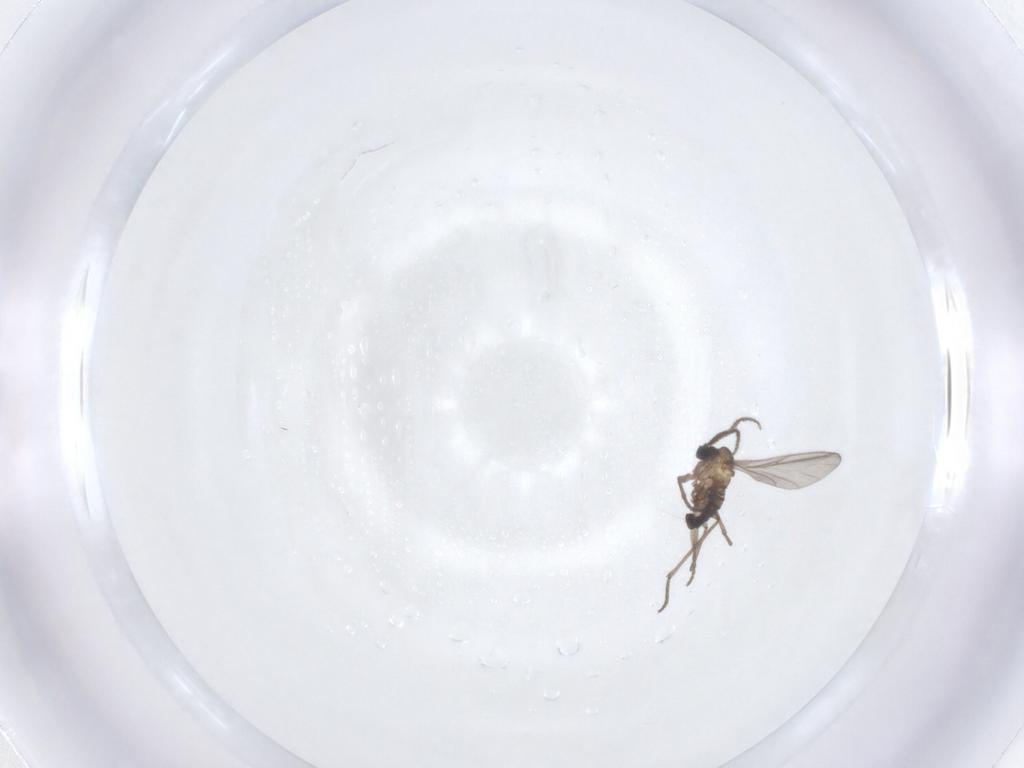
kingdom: Animalia
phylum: Arthropoda
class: Insecta
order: Diptera
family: Sciaridae
